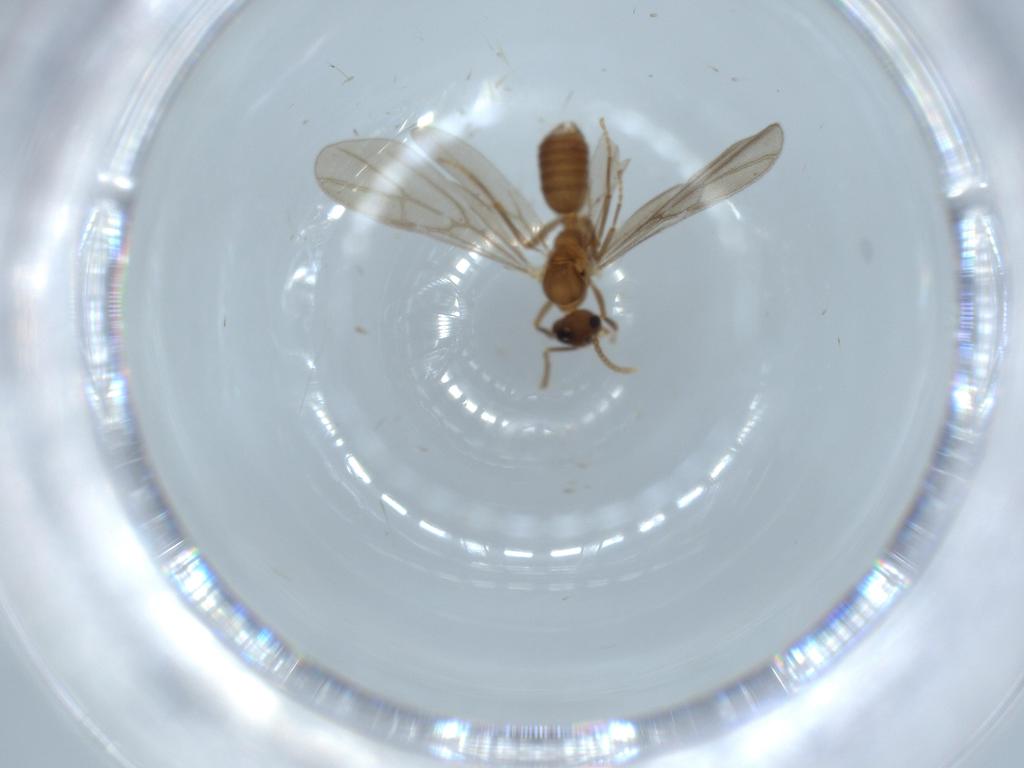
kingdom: Animalia
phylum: Arthropoda
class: Insecta
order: Hymenoptera
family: Formicidae
